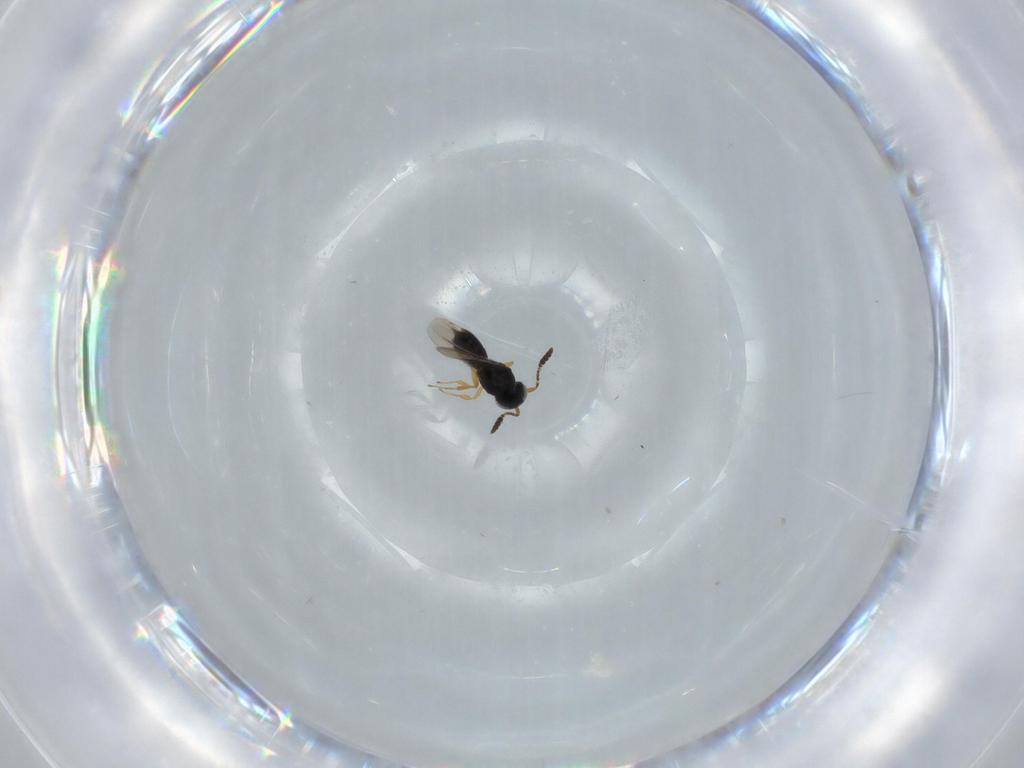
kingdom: Animalia
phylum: Arthropoda
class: Insecta
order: Hymenoptera
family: Scelionidae
